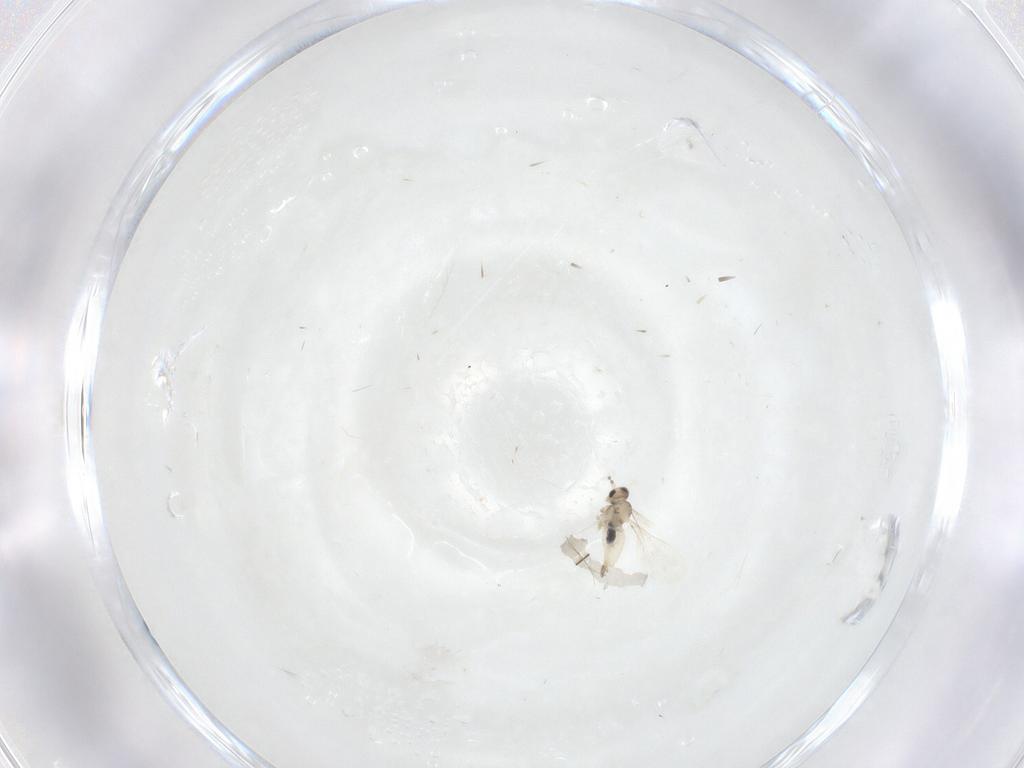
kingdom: Animalia
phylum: Arthropoda
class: Insecta
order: Diptera
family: Dolichopodidae
